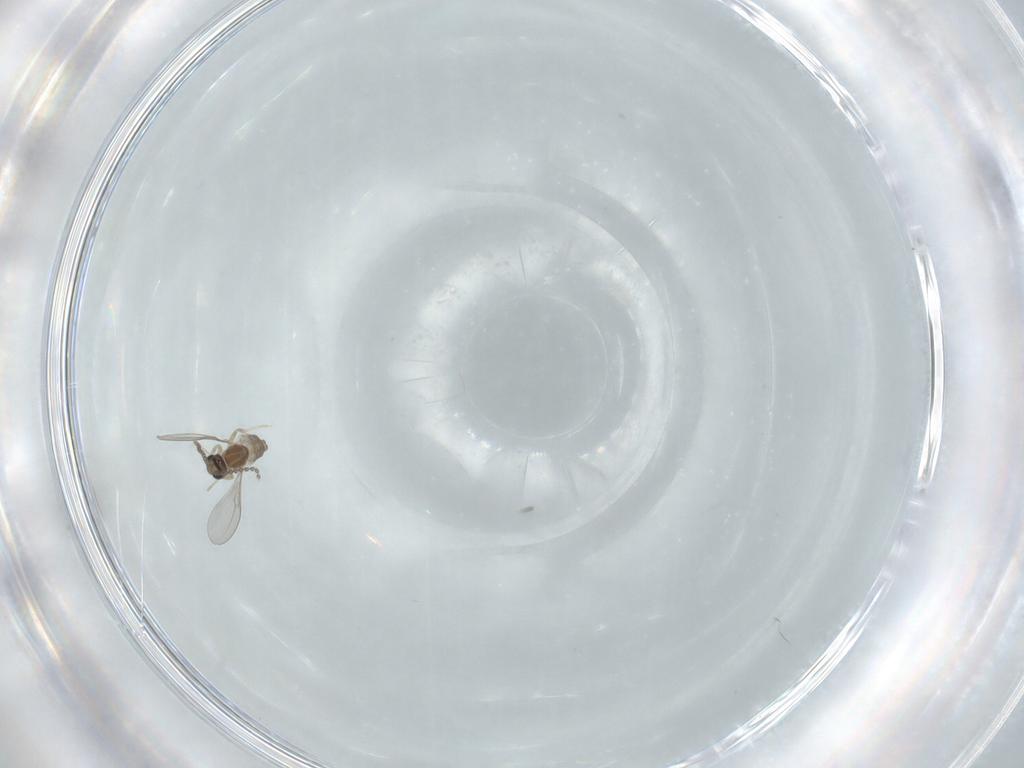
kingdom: Animalia
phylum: Arthropoda
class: Insecta
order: Diptera
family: Cecidomyiidae
